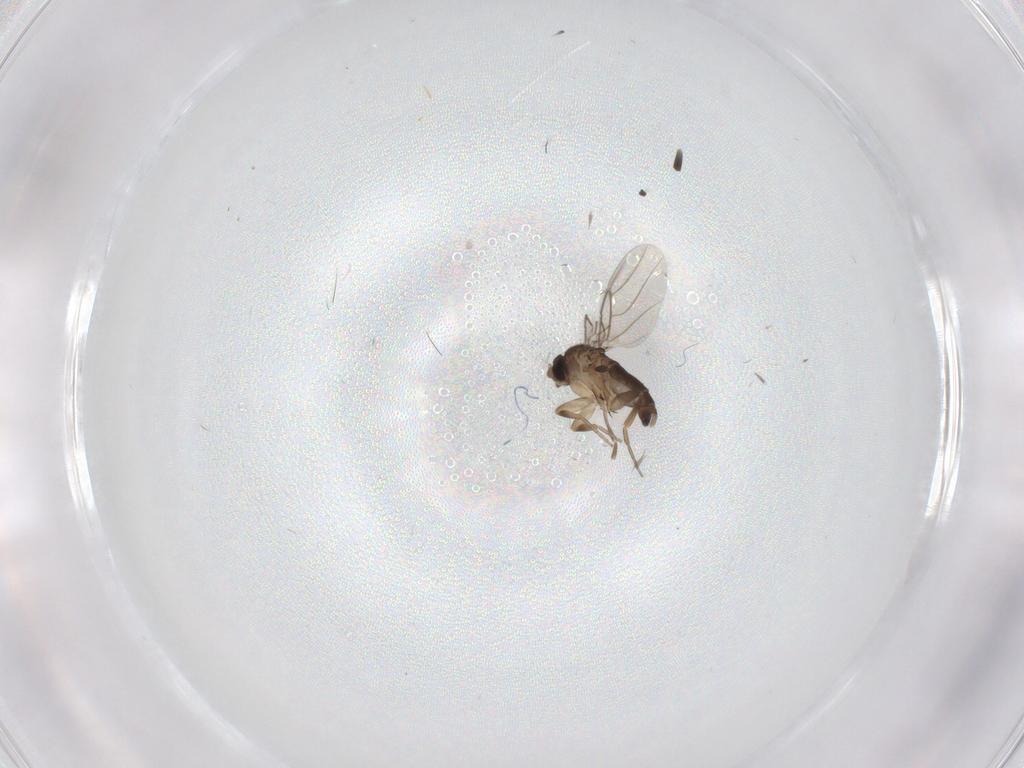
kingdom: Animalia
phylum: Arthropoda
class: Insecta
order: Diptera
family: Phoridae
